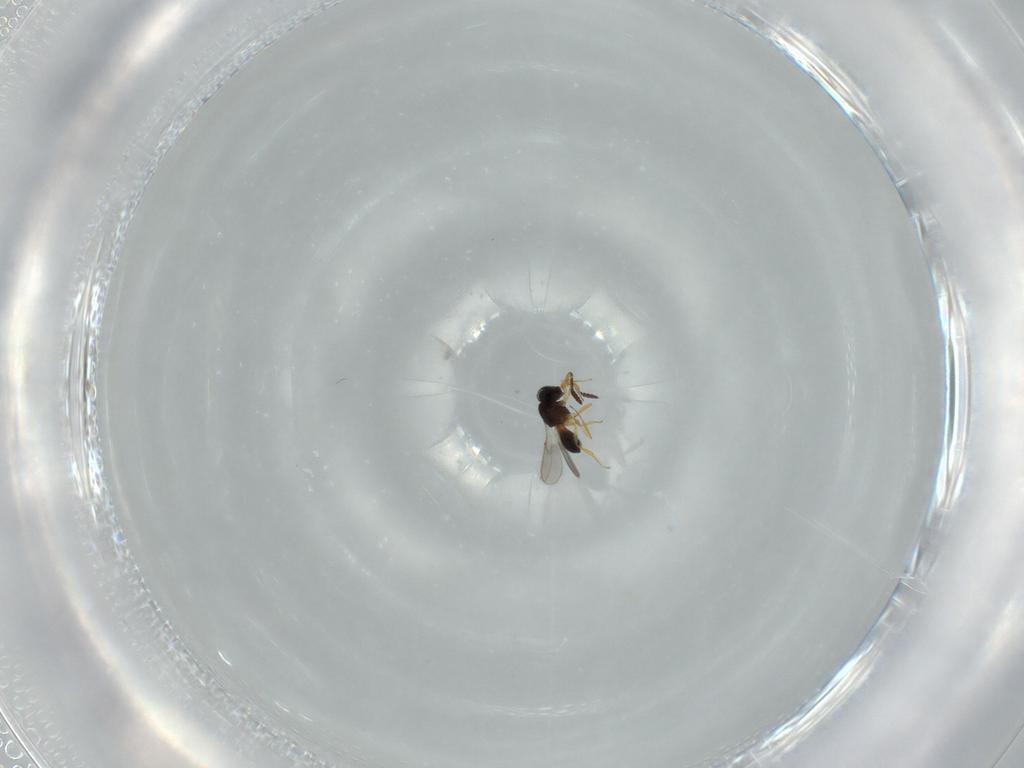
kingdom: Animalia
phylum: Arthropoda
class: Insecta
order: Hymenoptera
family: Scelionidae
